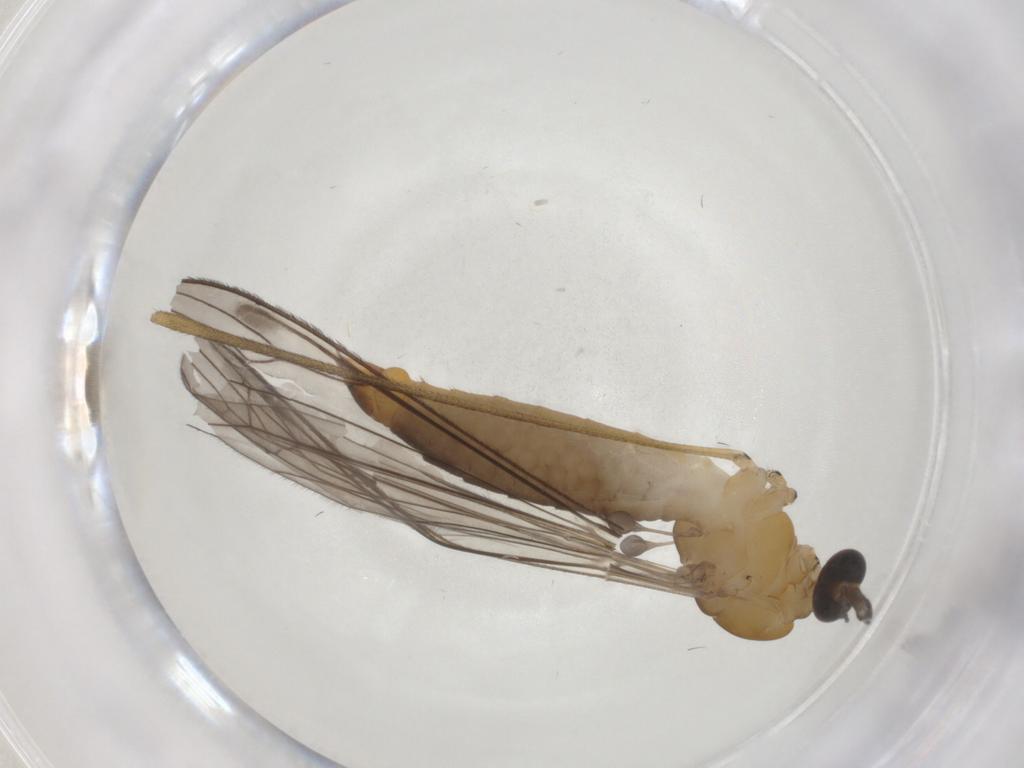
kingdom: Animalia
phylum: Arthropoda
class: Insecta
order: Diptera
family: Cecidomyiidae
